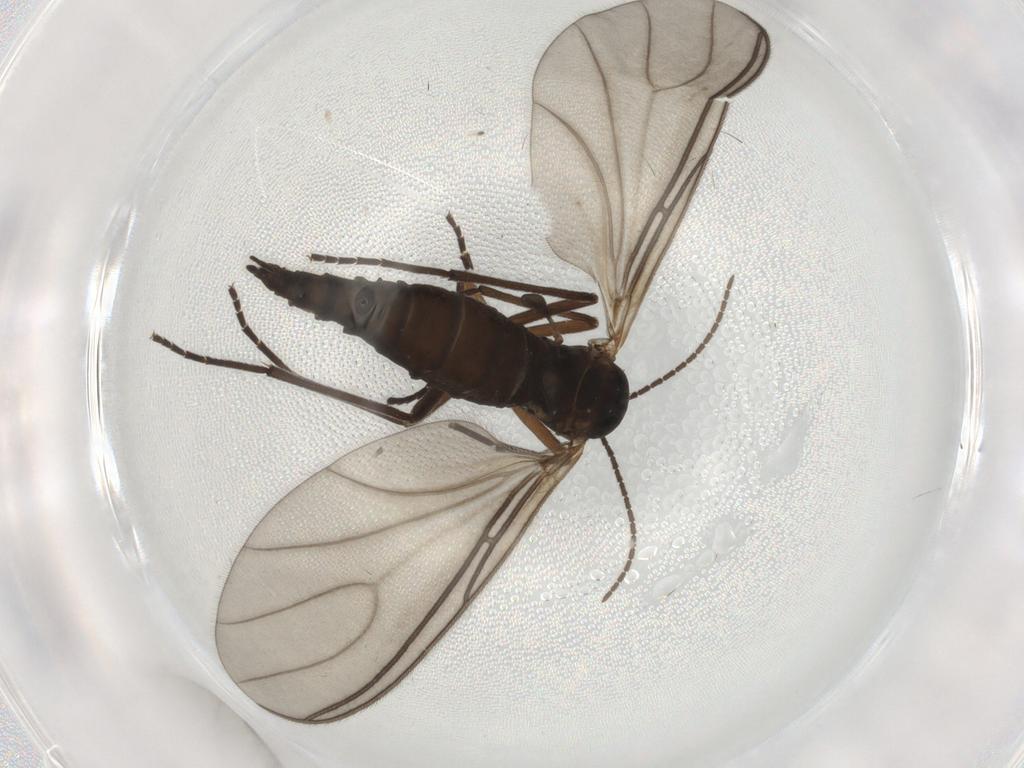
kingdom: Animalia
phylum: Arthropoda
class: Insecta
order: Diptera
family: Sciaridae
